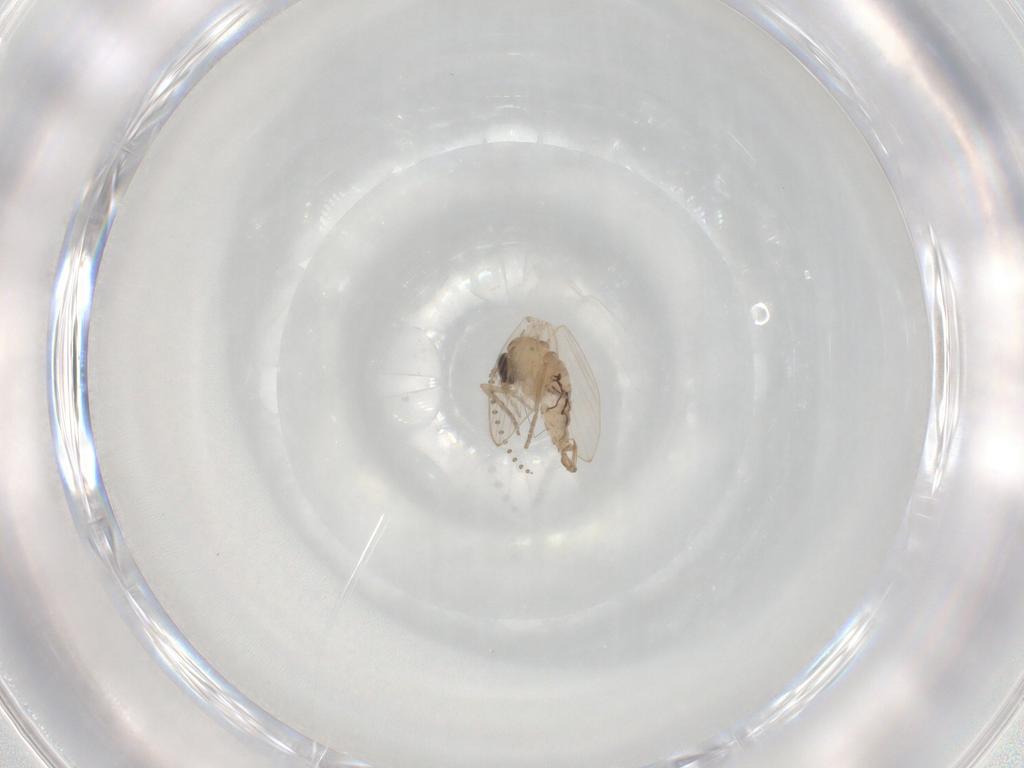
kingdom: Animalia
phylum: Arthropoda
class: Insecta
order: Diptera
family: Psychodidae
